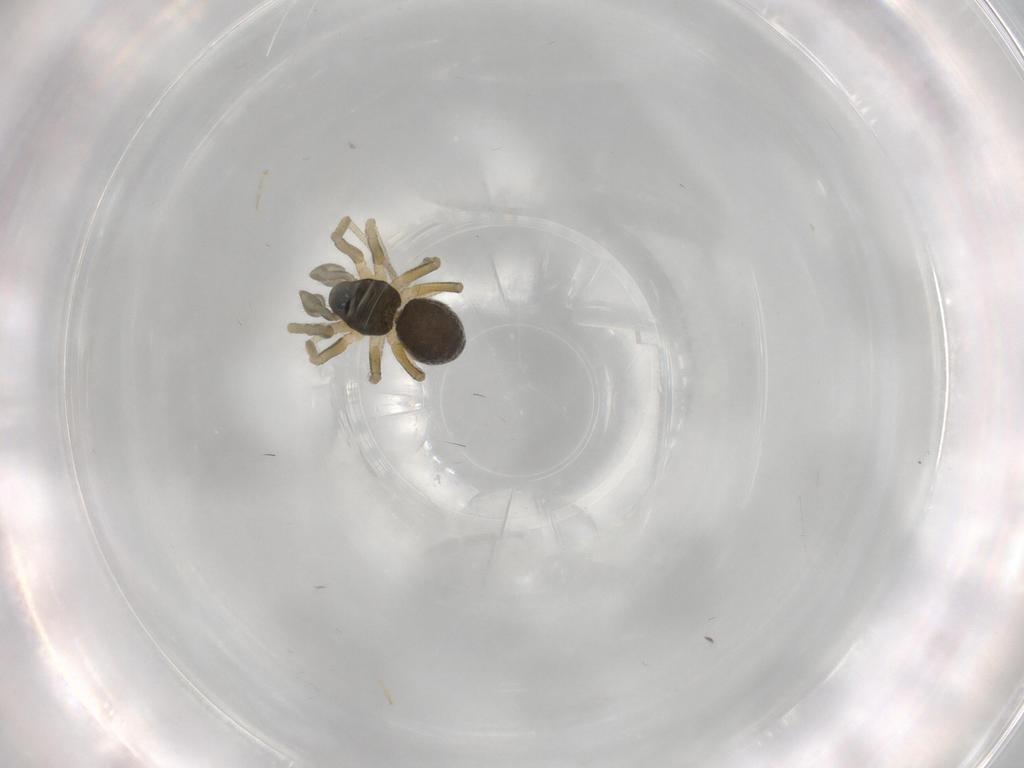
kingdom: Animalia
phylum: Arthropoda
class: Arachnida
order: Araneae
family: Linyphiidae
